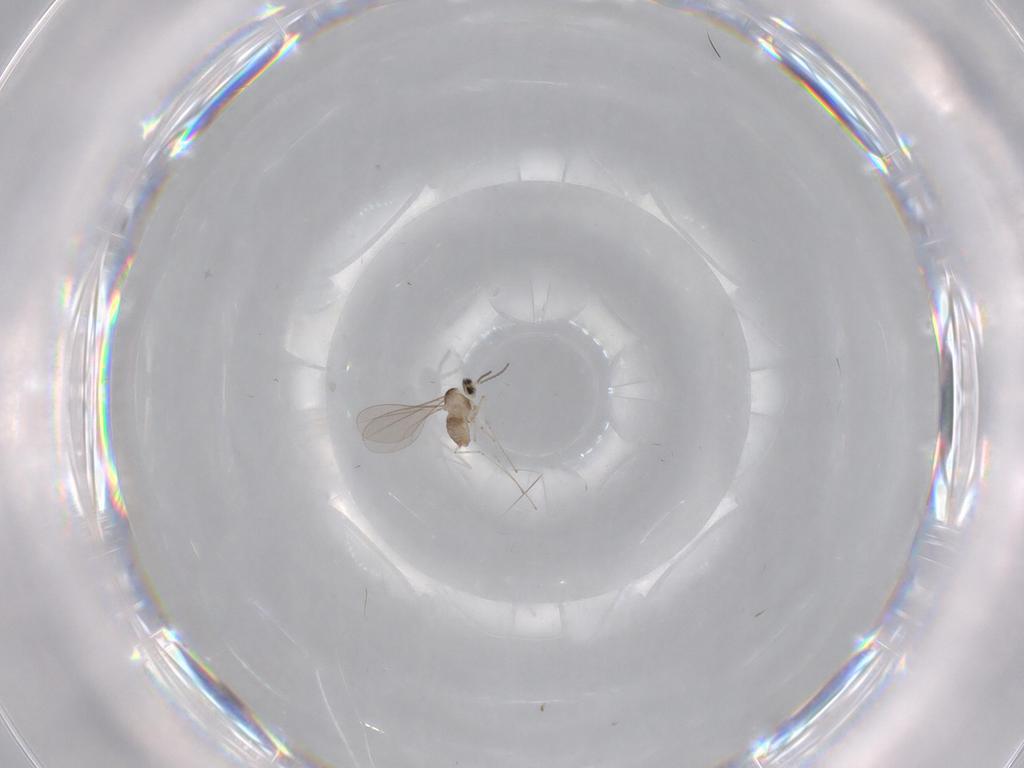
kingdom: Animalia
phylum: Arthropoda
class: Insecta
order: Diptera
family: Cecidomyiidae
